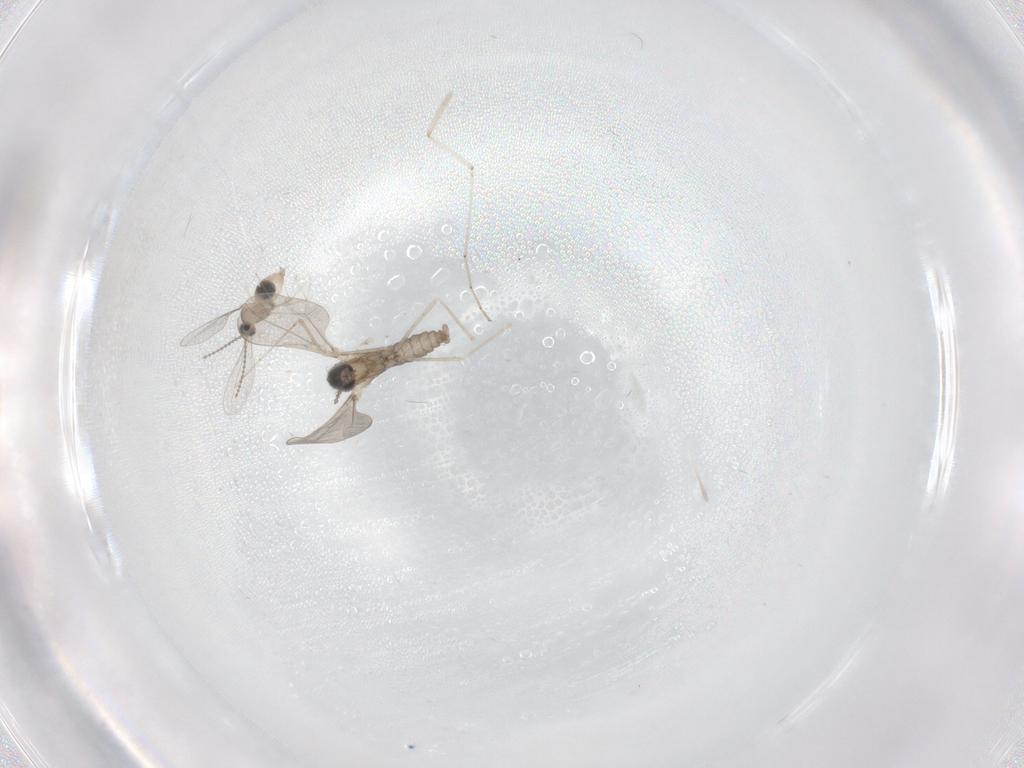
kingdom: Animalia
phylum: Arthropoda
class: Insecta
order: Diptera
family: Cecidomyiidae
